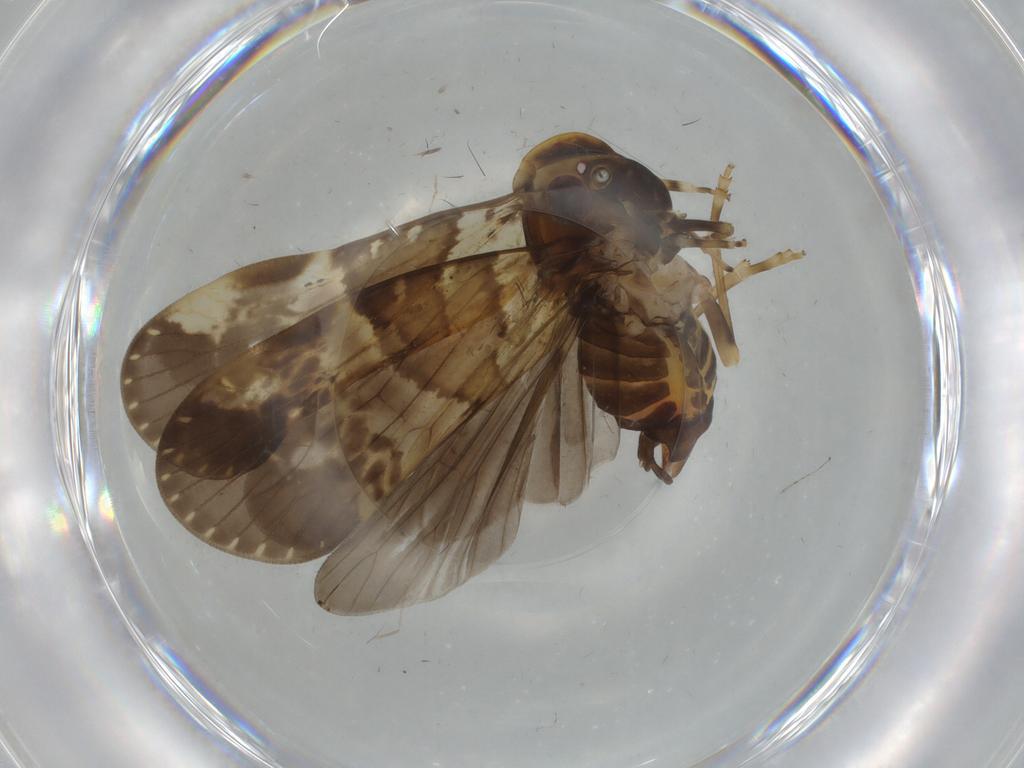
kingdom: Animalia
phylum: Arthropoda
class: Insecta
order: Hemiptera
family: Cixiidae
